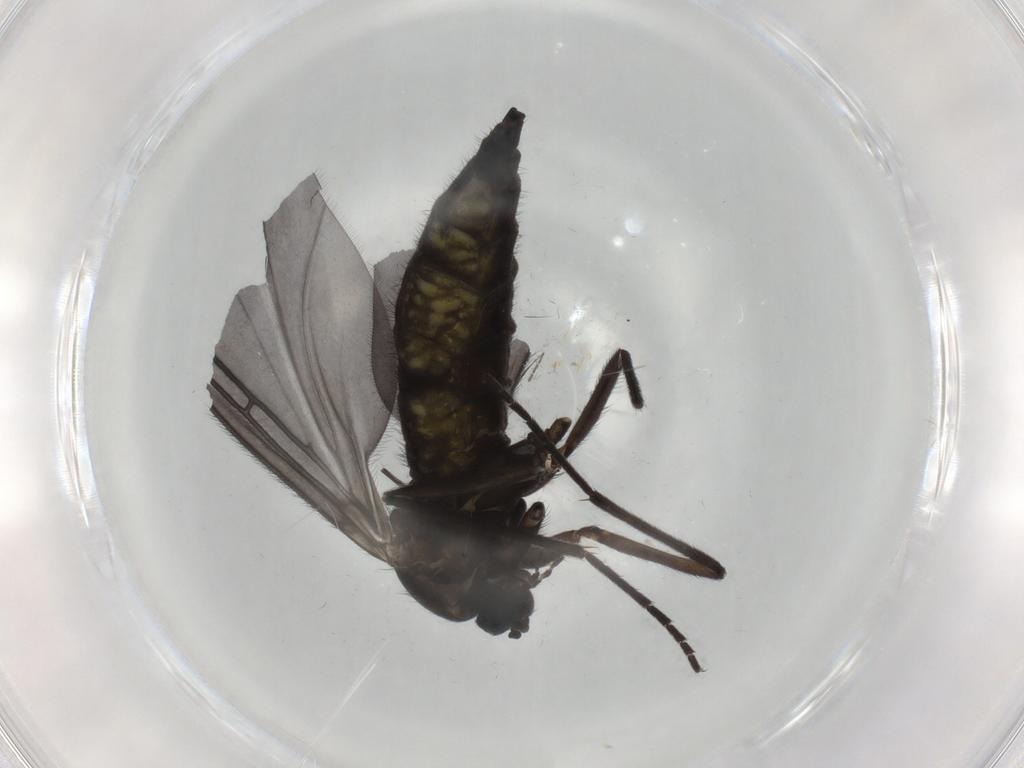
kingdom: Animalia
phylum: Arthropoda
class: Insecta
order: Diptera
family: Sciaridae
